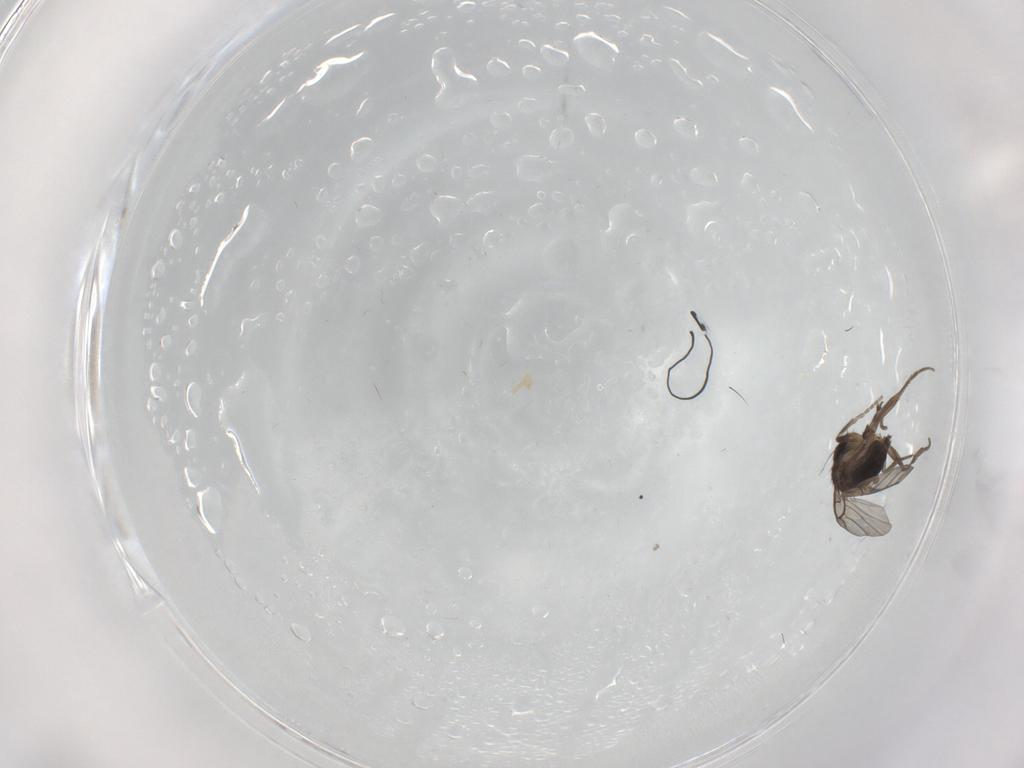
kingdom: Animalia
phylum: Arthropoda
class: Insecta
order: Diptera
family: Phoridae
